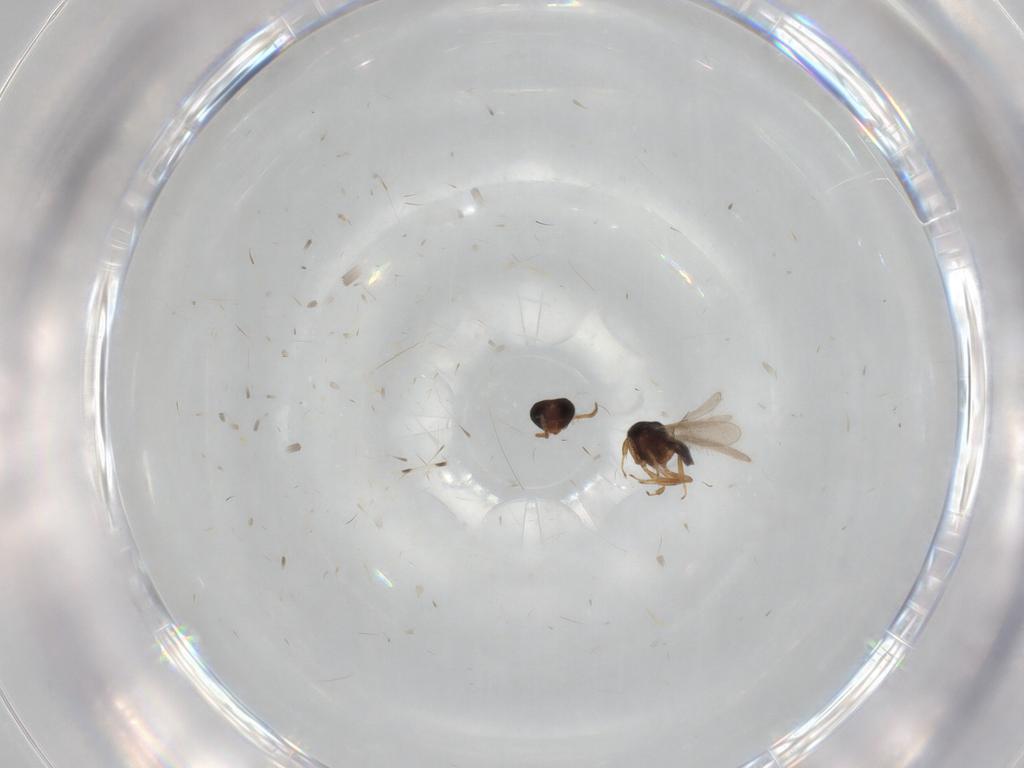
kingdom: Animalia
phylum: Arthropoda
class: Insecta
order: Hymenoptera
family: Scelionidae
